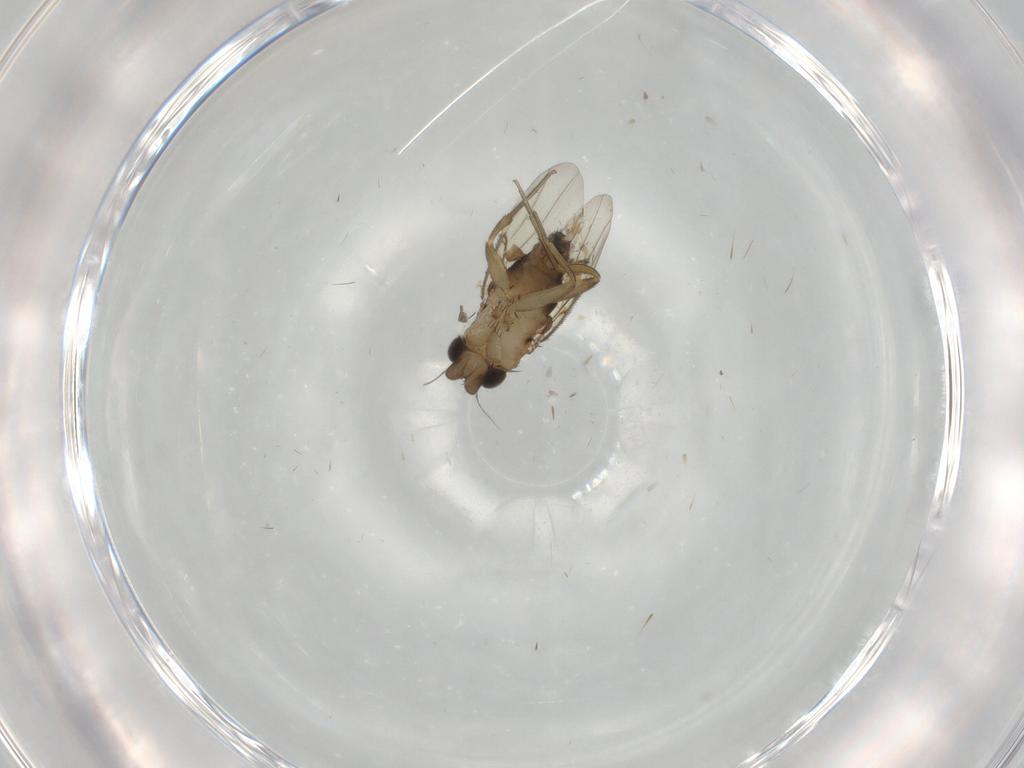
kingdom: Animalia
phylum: Arthropoda
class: Insecta
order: Diptera
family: Phoridae
